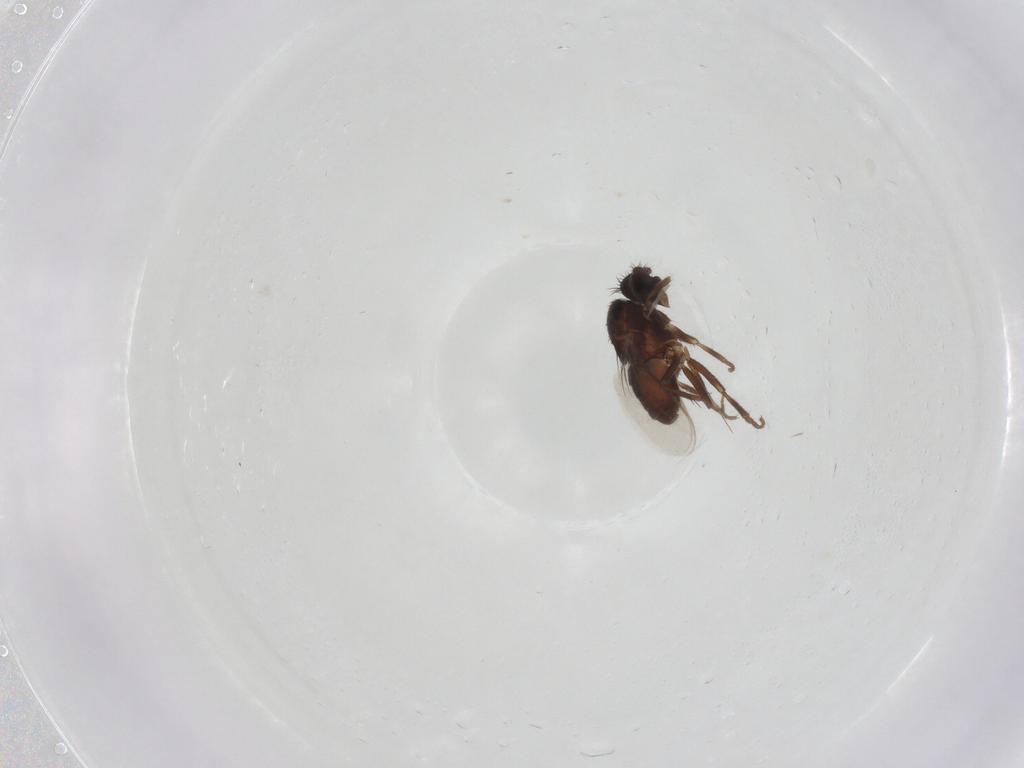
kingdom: Animalia
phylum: Arthropoda
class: Insecta
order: Diptera
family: Sphaeroceridae
